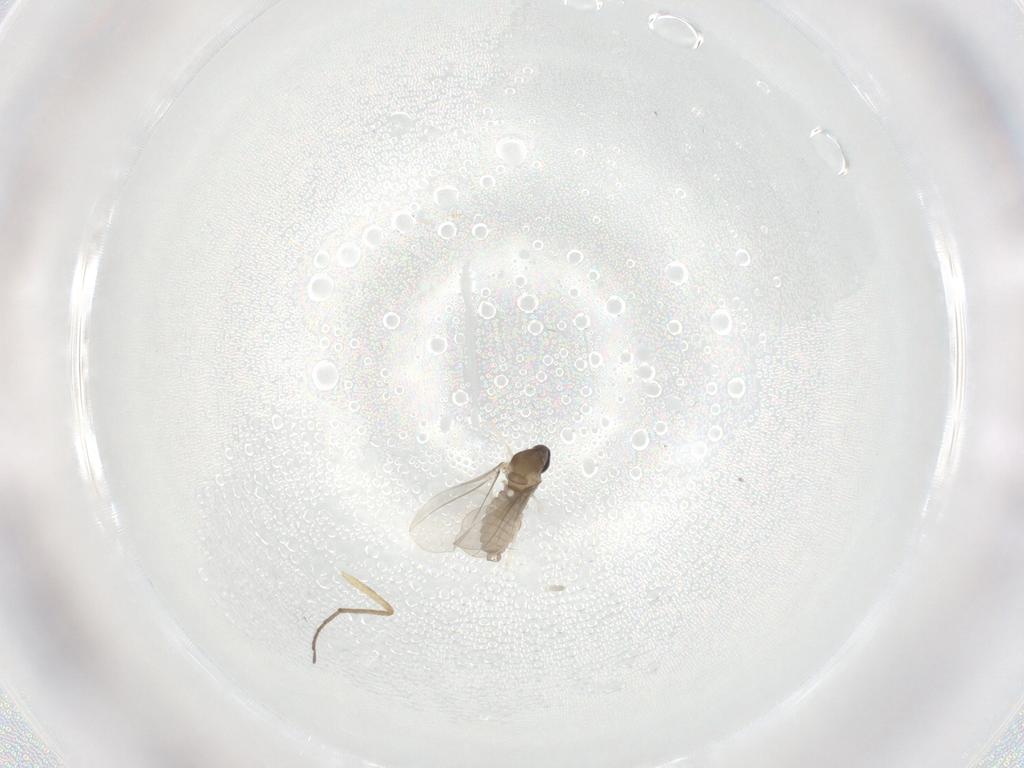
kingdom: Animalia
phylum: Arthropoda
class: Insecta
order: Diptera
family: Cecidomyiidae
